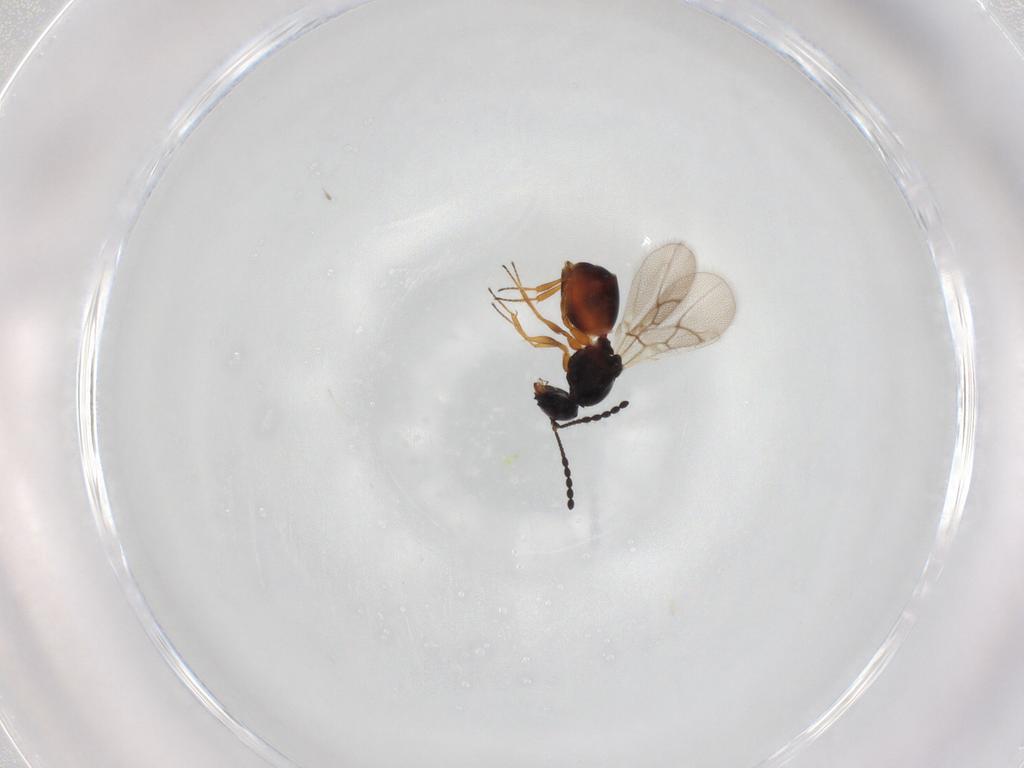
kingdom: Animalia
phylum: Arthropoda
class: Insecta
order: Hymenoptera
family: Figitidae
